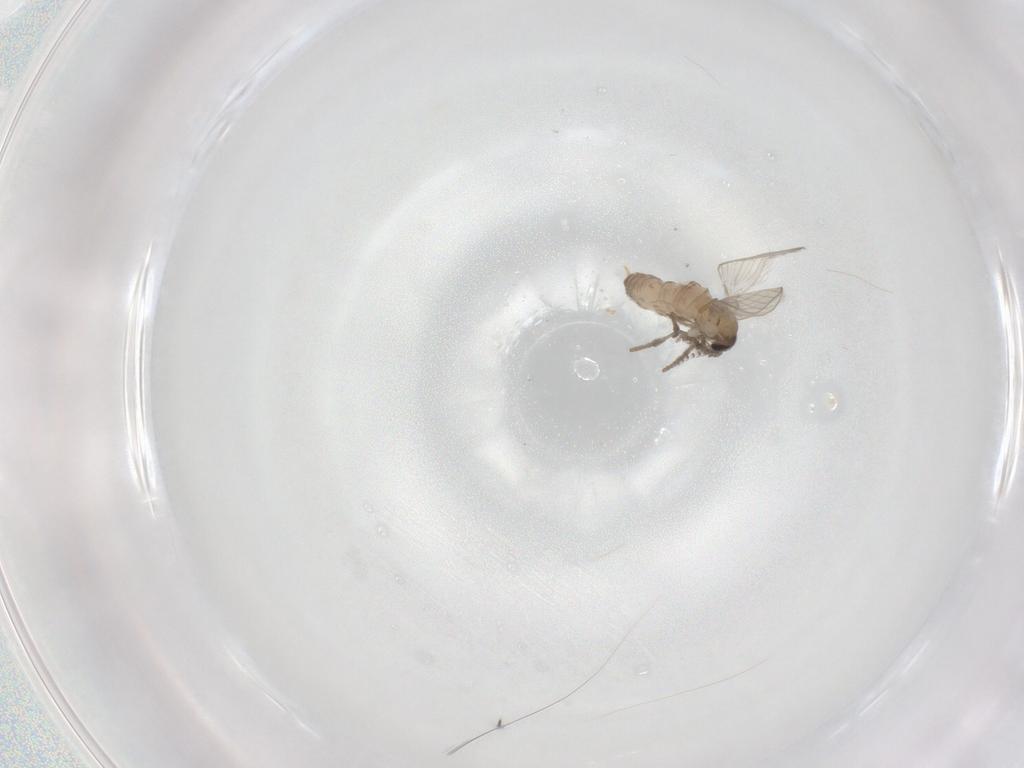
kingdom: Animalia
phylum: Arthropoda
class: Insecta
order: Diptera
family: Psychodidae
